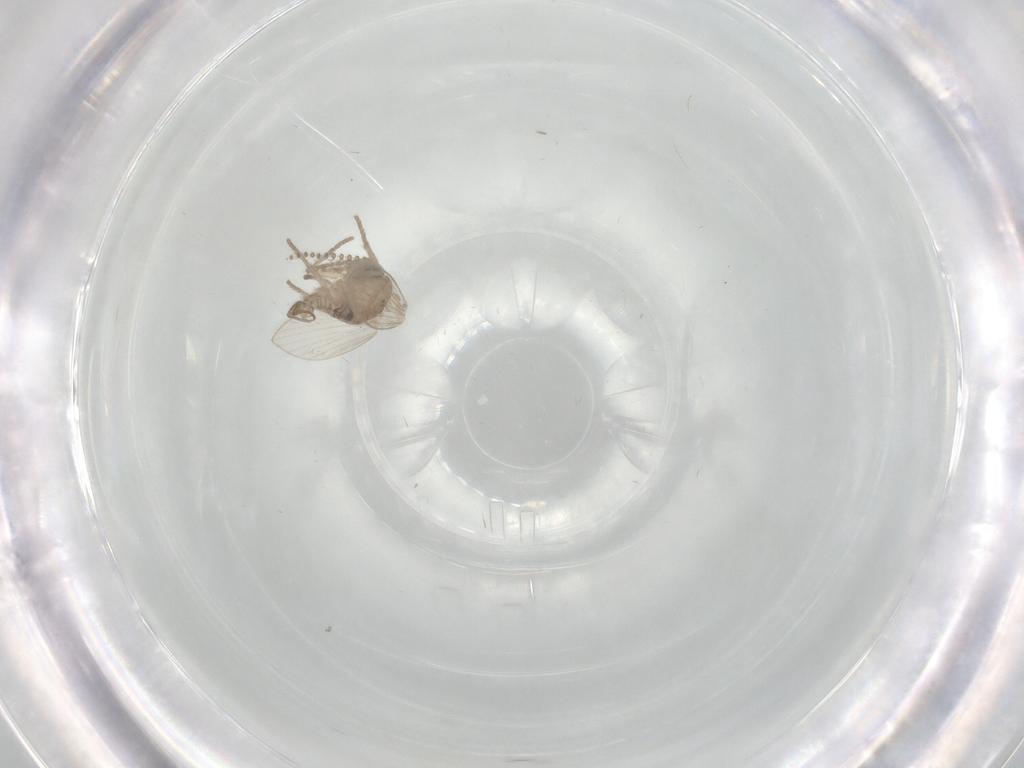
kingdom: Animalia
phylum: Arthropoda
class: Insecta
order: Diptera
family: Psychodidae
